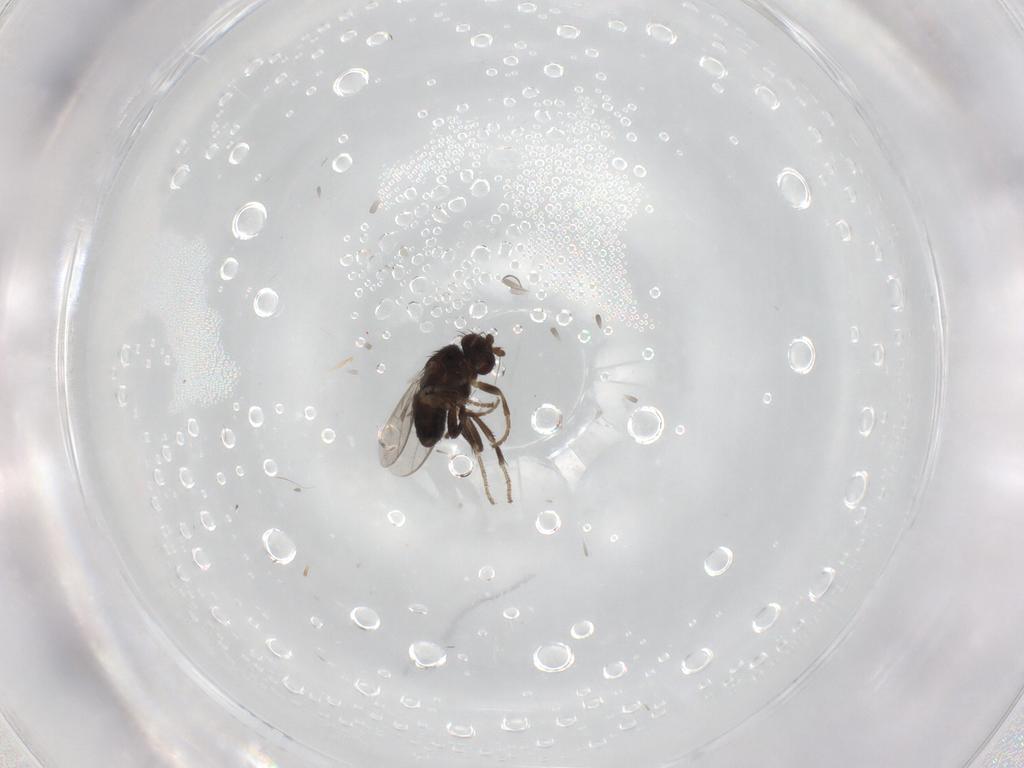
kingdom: Animalia
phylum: Arthropoda
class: Insecta
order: Diptera
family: Sphaeroceridae
